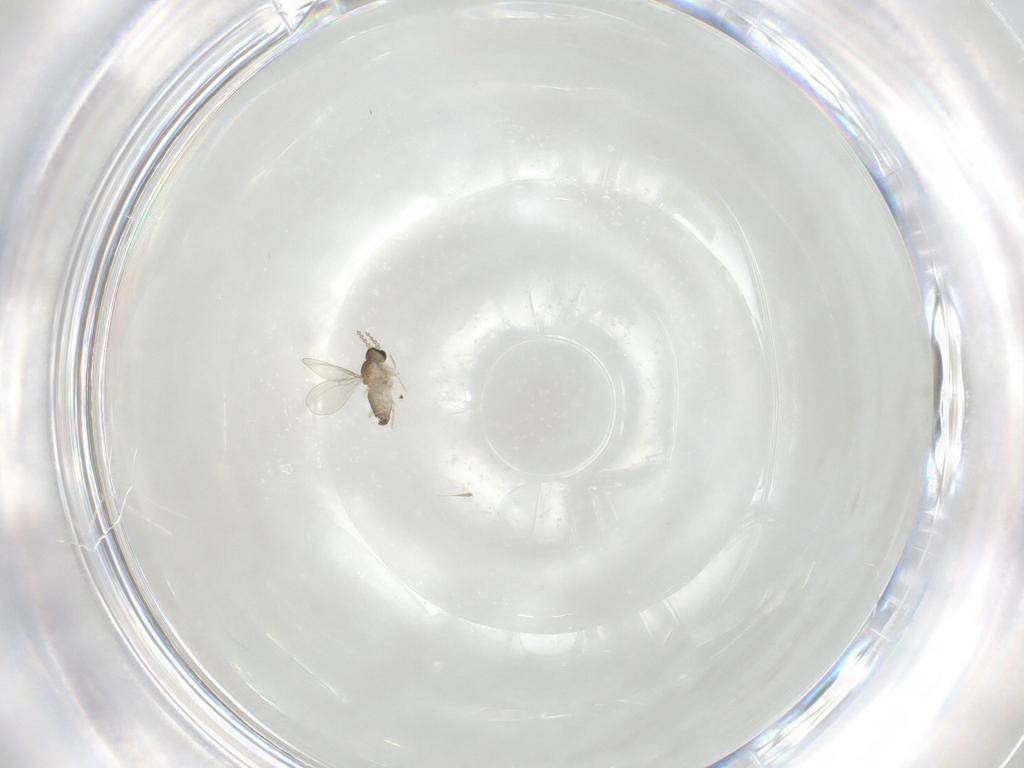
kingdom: Animalia
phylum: Arthropoda
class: Insecta
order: Diptera
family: Cecidomyiidae
